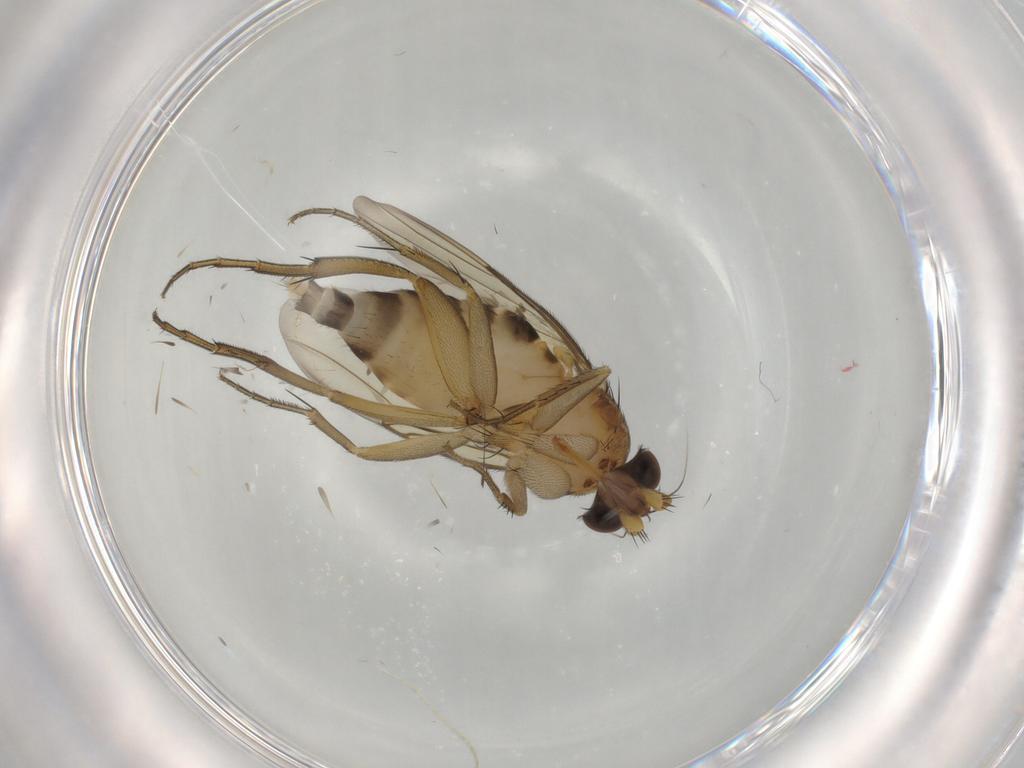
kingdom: Animalia
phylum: Arthropoda
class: Insecta
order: Diptera
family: Phoridae
